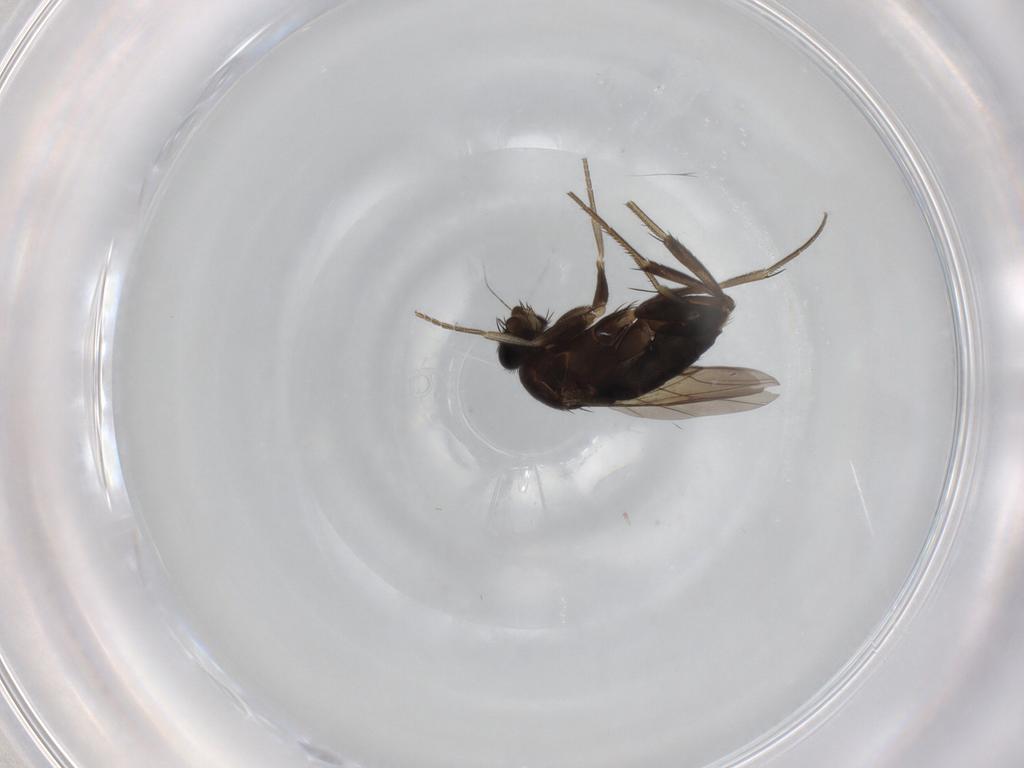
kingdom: Animalia
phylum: Arthropoda
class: Insecta
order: Diptera
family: Phoridae
